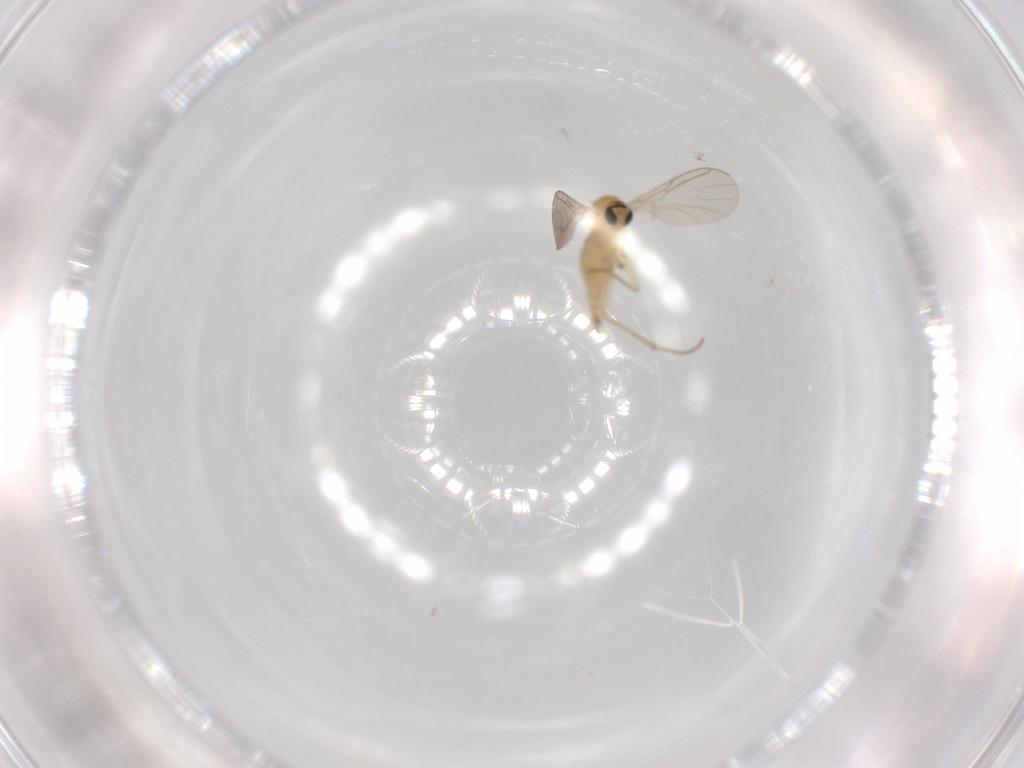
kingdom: Animalia
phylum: Arthropoda
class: Insecta
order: Diptera
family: Sciaridae
